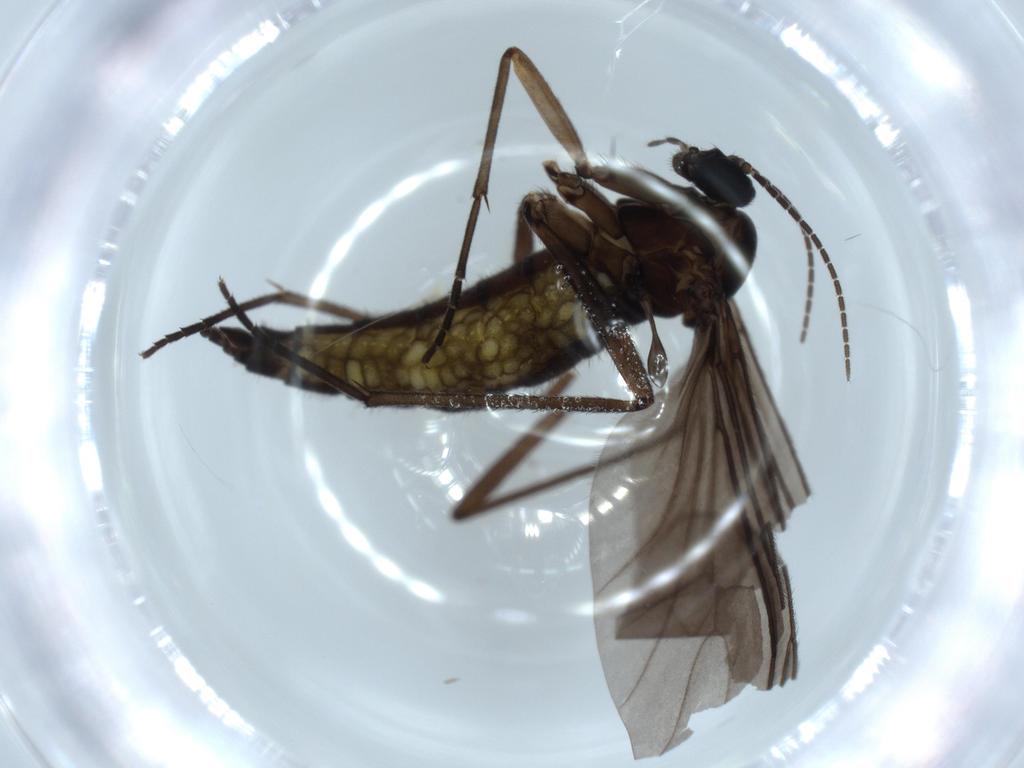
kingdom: Animalia
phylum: Arthropoda
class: Insecta
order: Diptera
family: Sciaridae
